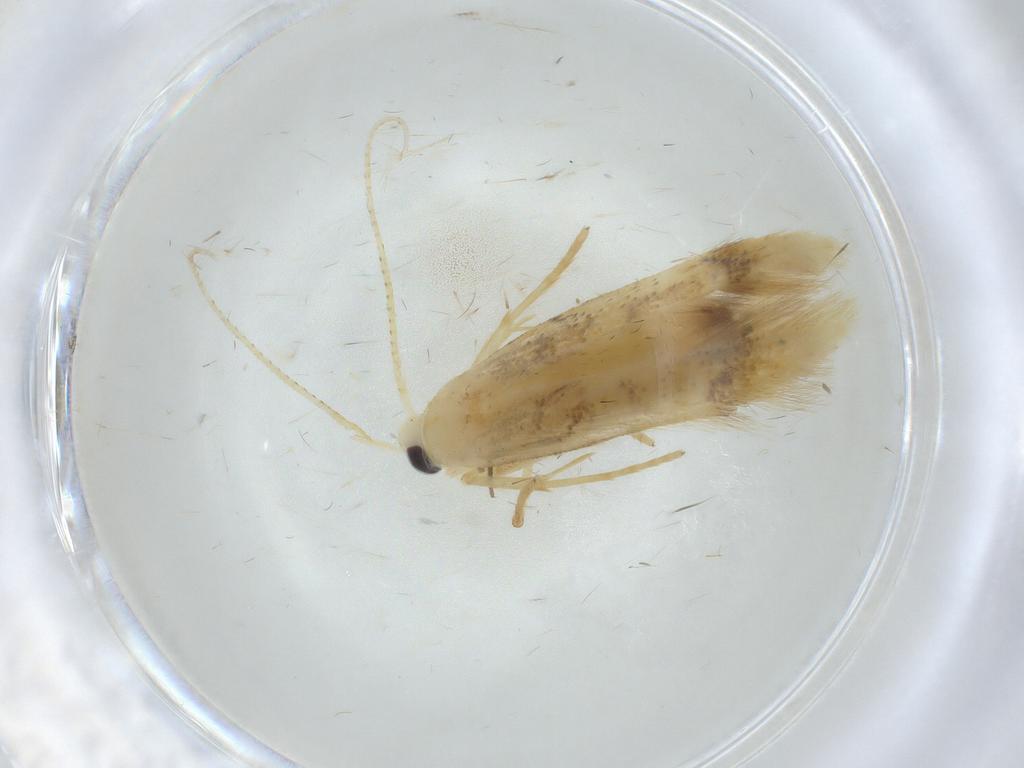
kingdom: Animalia
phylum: Arthropoda
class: Insecta
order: Lepidoptera
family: Oecophoridae
